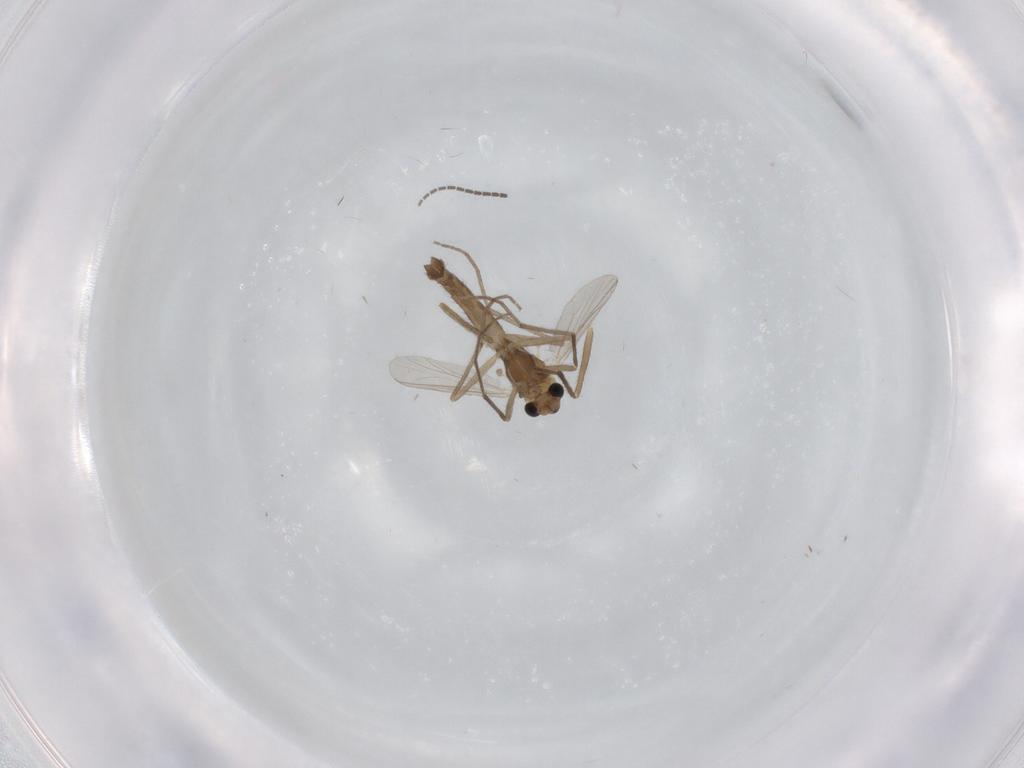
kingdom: Animalia
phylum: Arthropoda
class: Insecta
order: Diptera
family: Chironomidae
